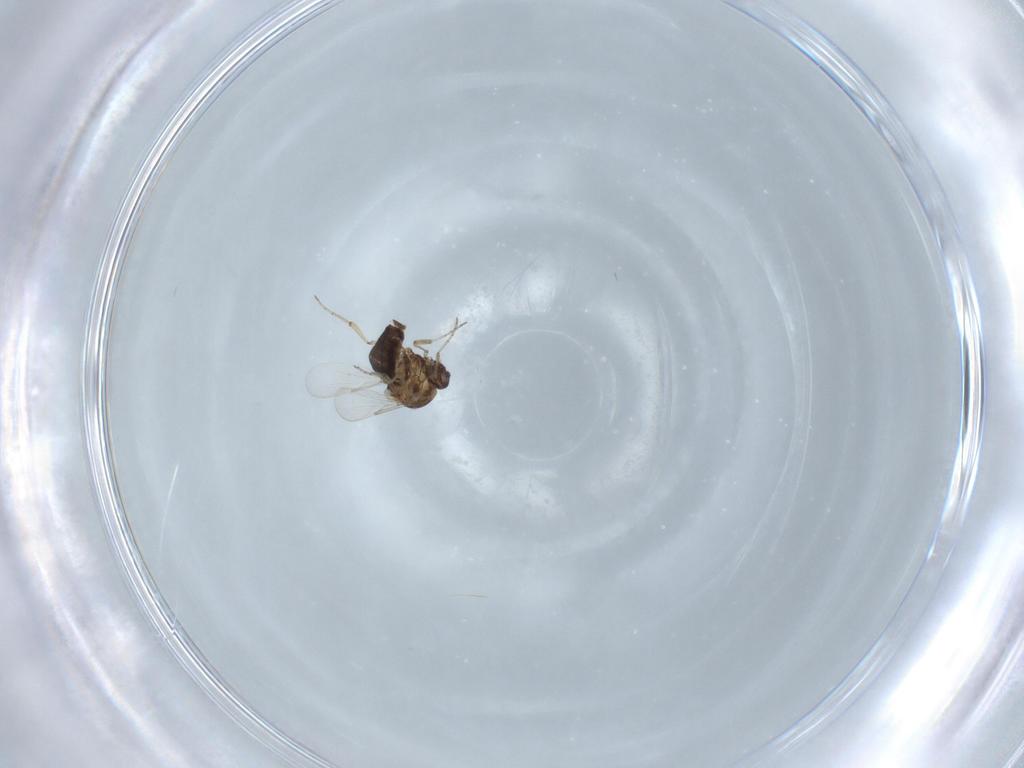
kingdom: Animalia
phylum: Arthropoda
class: Insecta
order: Diptera
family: Ceratopogonidae
